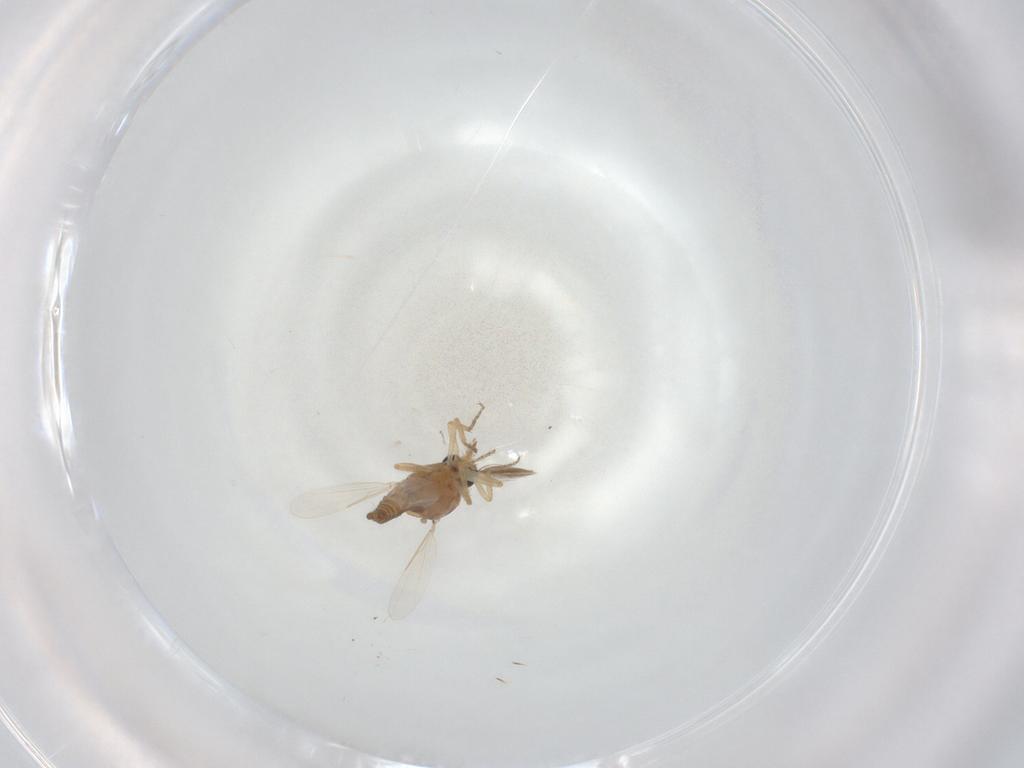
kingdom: Animalia
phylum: Arthropoda
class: Insecta
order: Diptera
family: Ceratopogonidae
